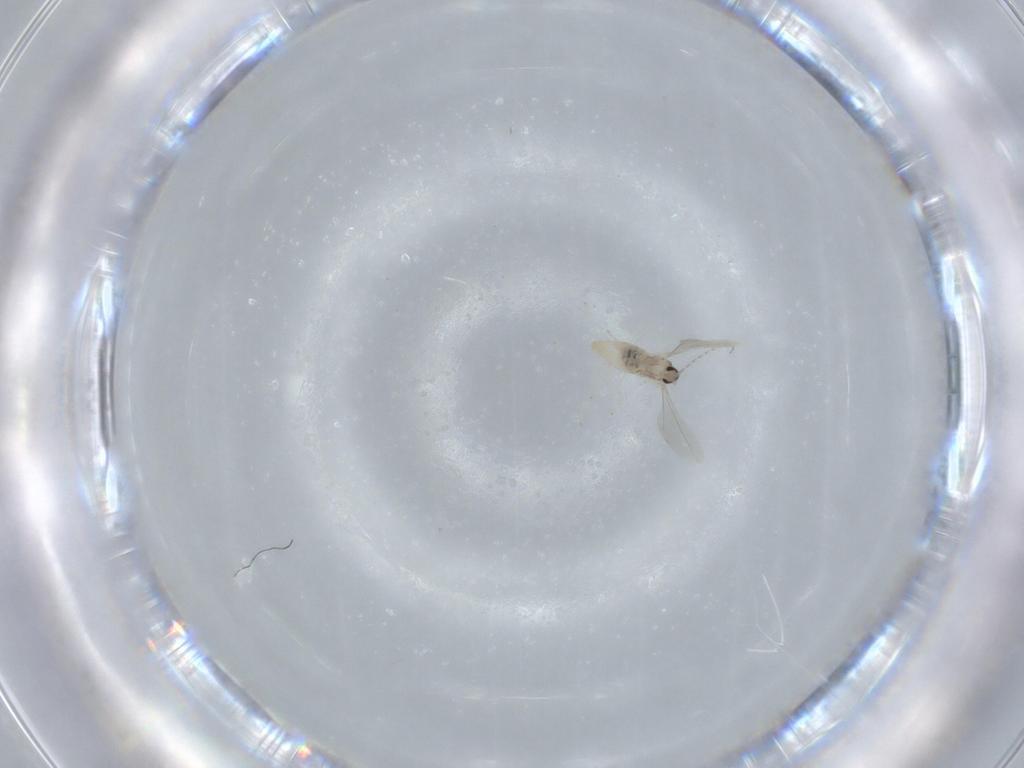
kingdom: Animalia
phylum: Arthropoda
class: Insecta
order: Diptera
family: Cecidomyiidae
